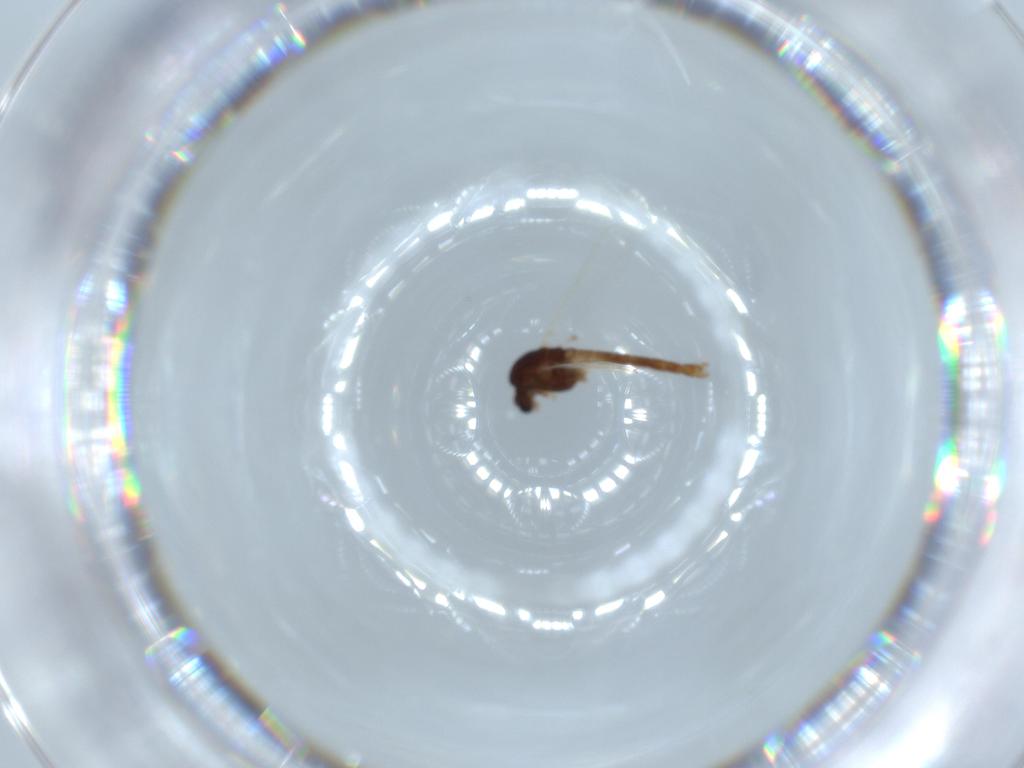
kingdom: Animalia
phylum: Arthropoda
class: Insecta
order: Diptera
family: Chironomidae
